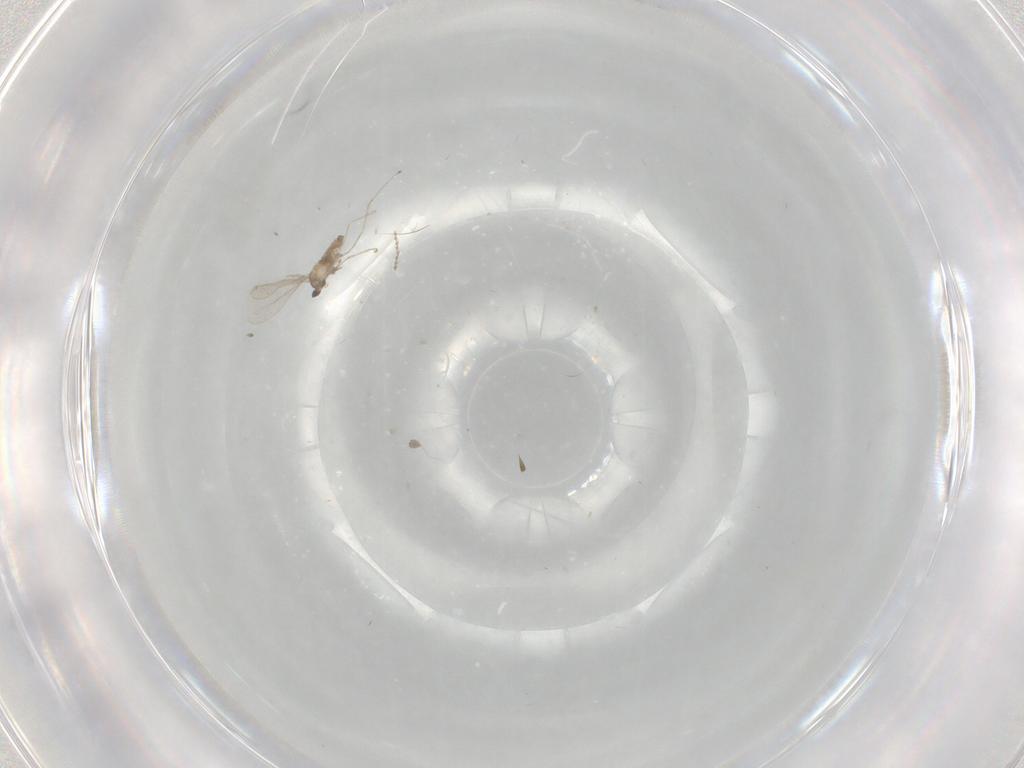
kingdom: Animalia
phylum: Arthropoda
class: Insecta
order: Diptera
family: Cecidomyiidae
